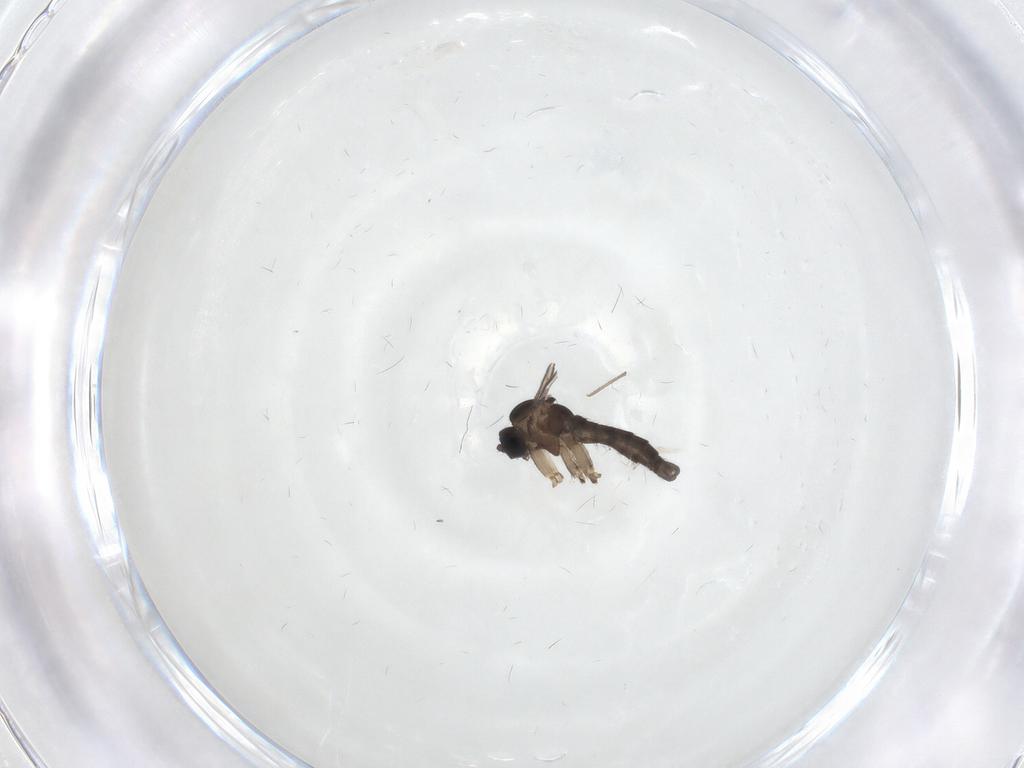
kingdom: Animalia
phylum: Arthropoda
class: Insecta
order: Diptera
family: Sciaridae
